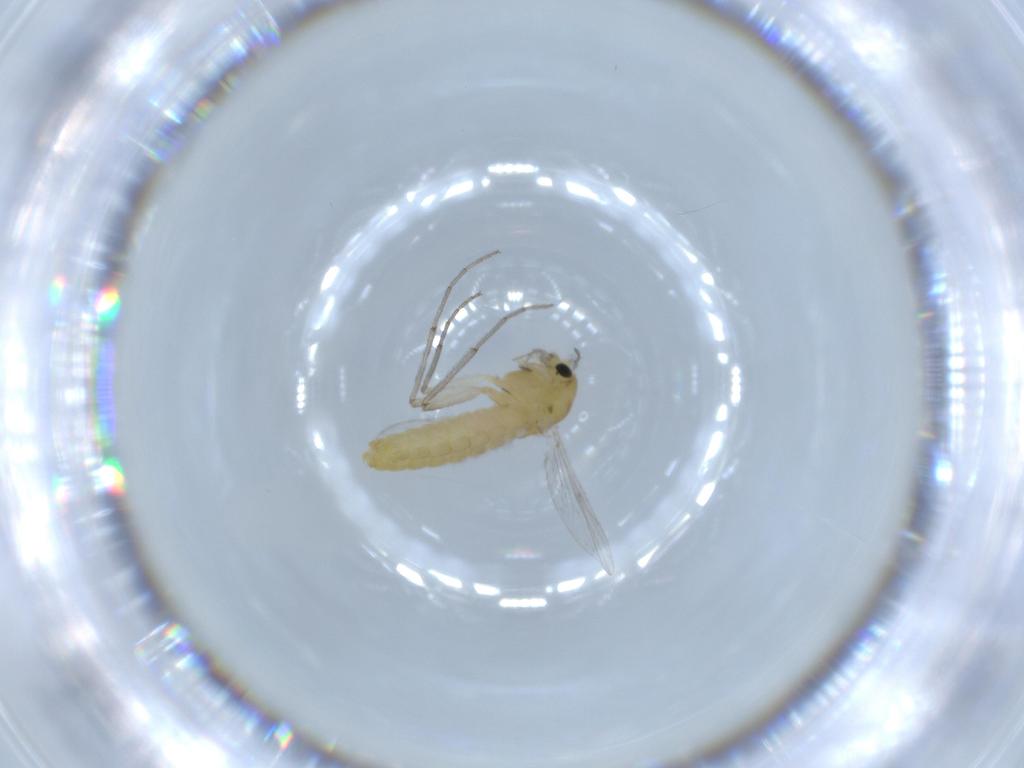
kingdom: Animalia
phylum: Arthropoda
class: Insecta
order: Diptera
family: Chironomidae
